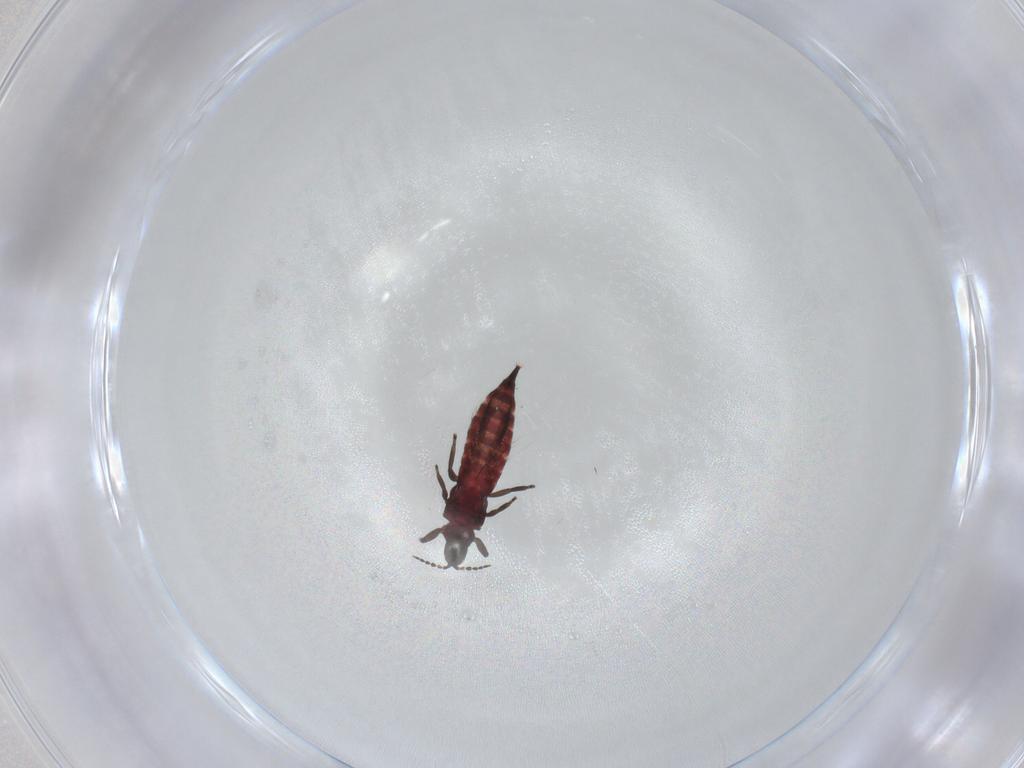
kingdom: Animalia
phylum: Arthropoda
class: Insecta
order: Thysanoptera
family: Phlaeothripidae
